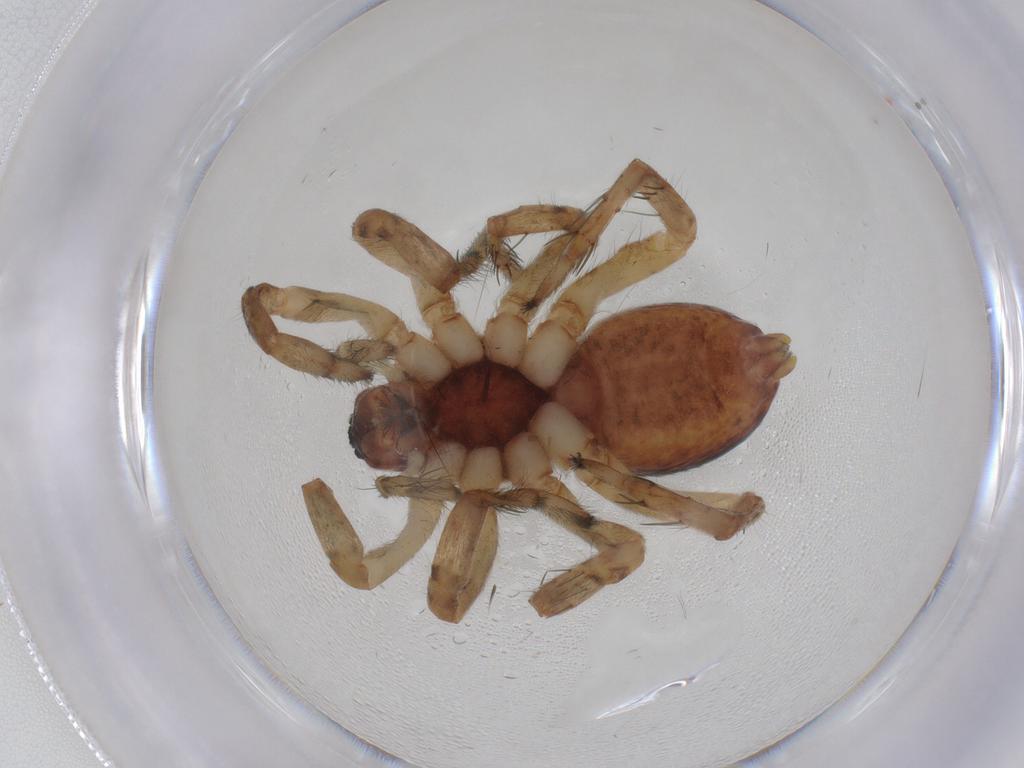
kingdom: Animalia
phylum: Arthropoda
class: Arachnida
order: Araneae
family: Anyphaenidae
